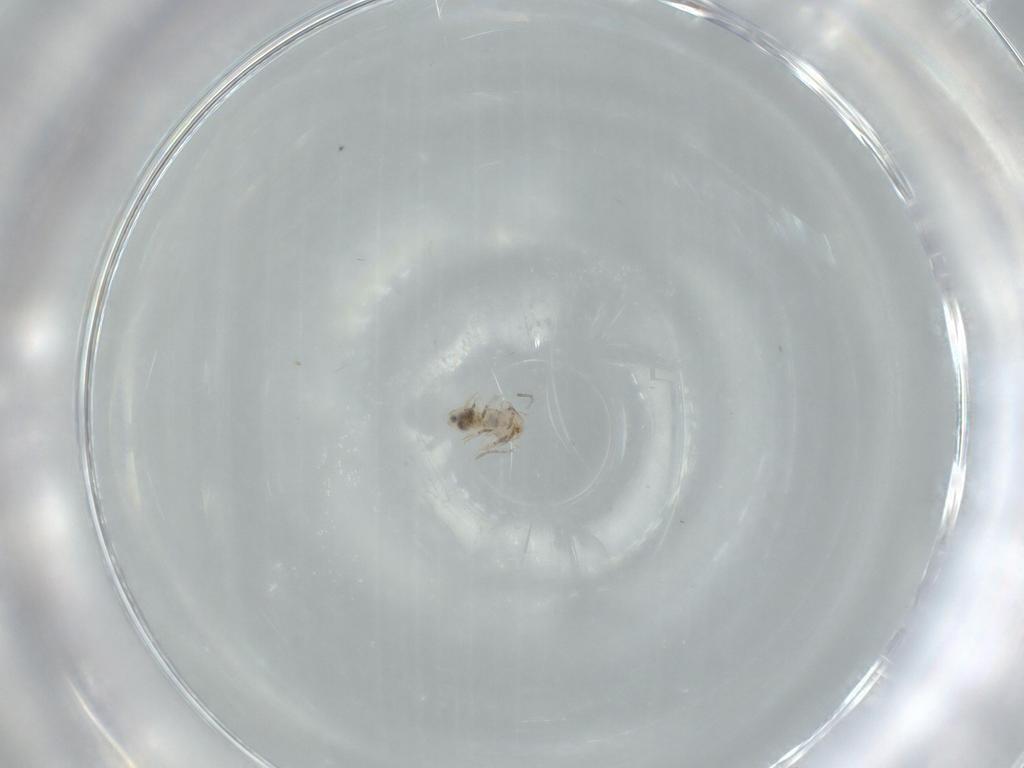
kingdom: Animalia
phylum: Arthropoda
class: Insecta
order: Psocodea
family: Psocidae
